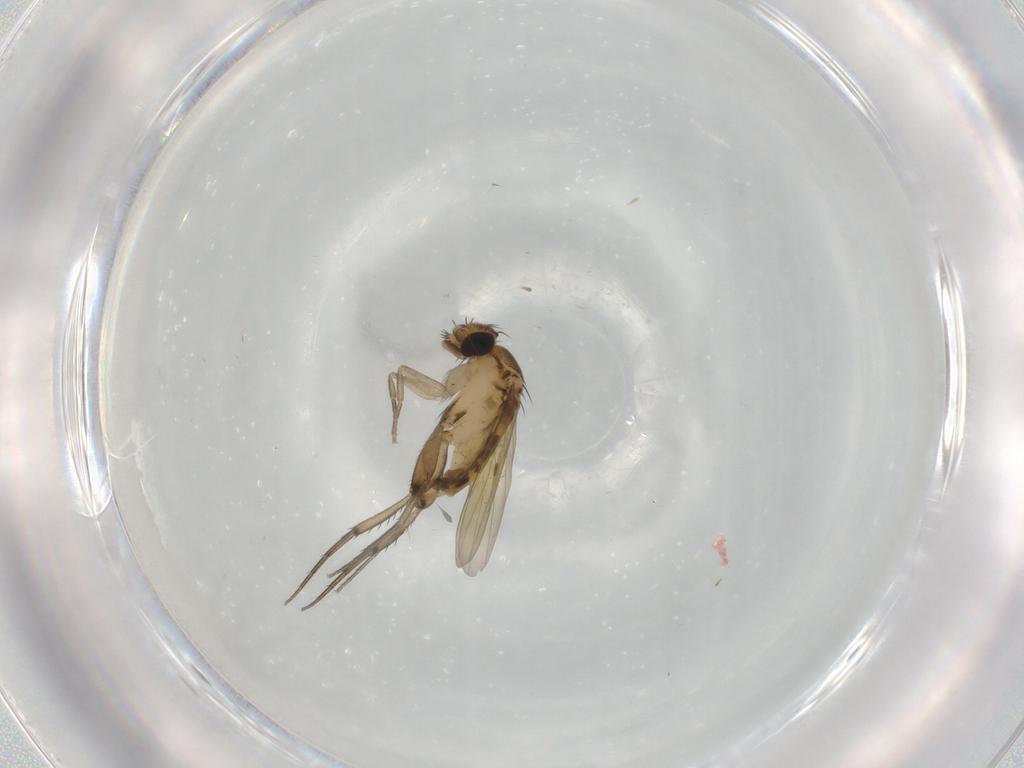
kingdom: Animalia
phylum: Arthropoda
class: Insecta
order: Diptera
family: Phoridae
